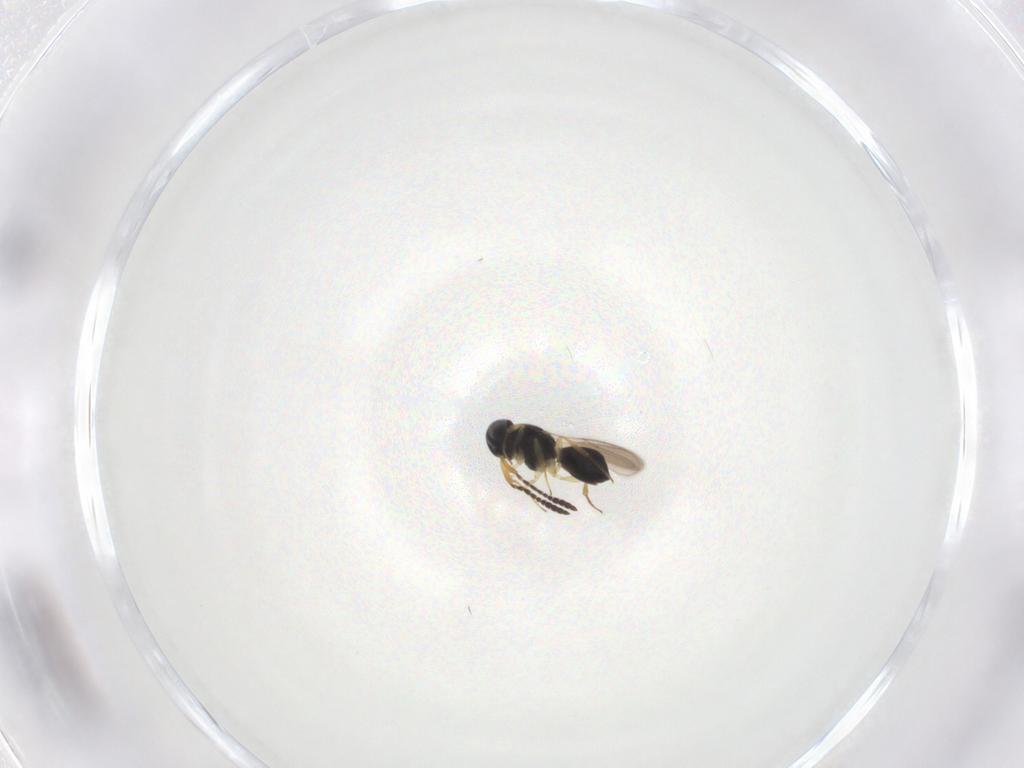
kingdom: Animalia
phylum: Arthropoda
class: Insecta
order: Hymenoptera
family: Scelionidae
